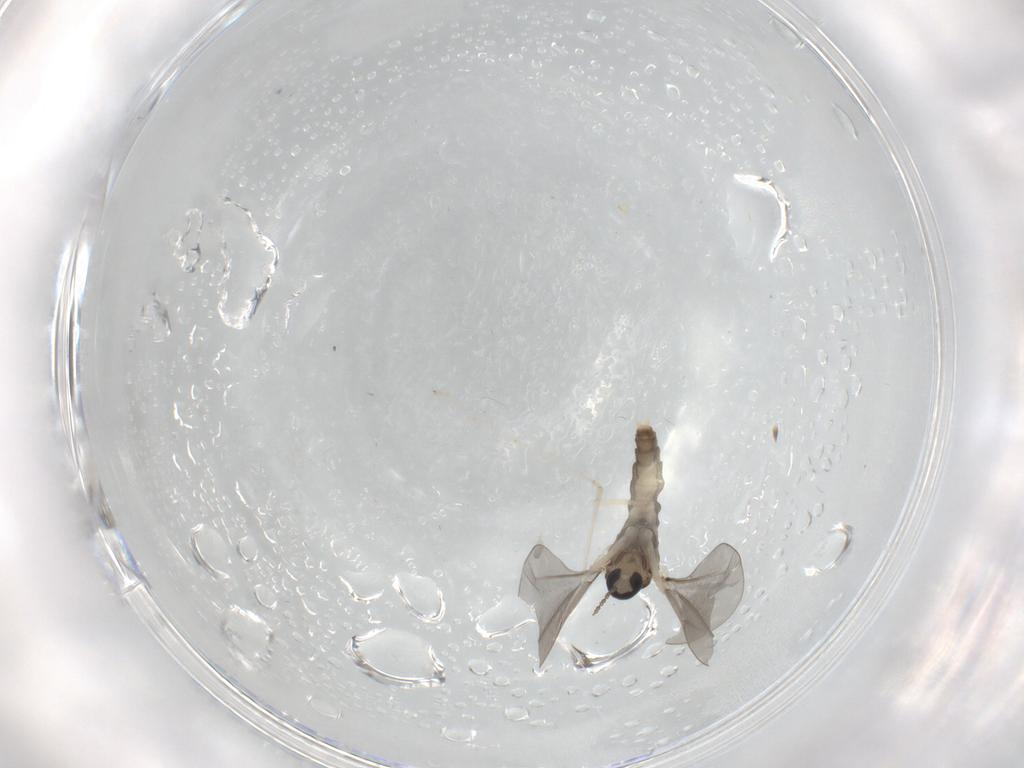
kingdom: Animalia
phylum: Arthropoda
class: Insecta
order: Diptera
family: Cecidomyiidae
